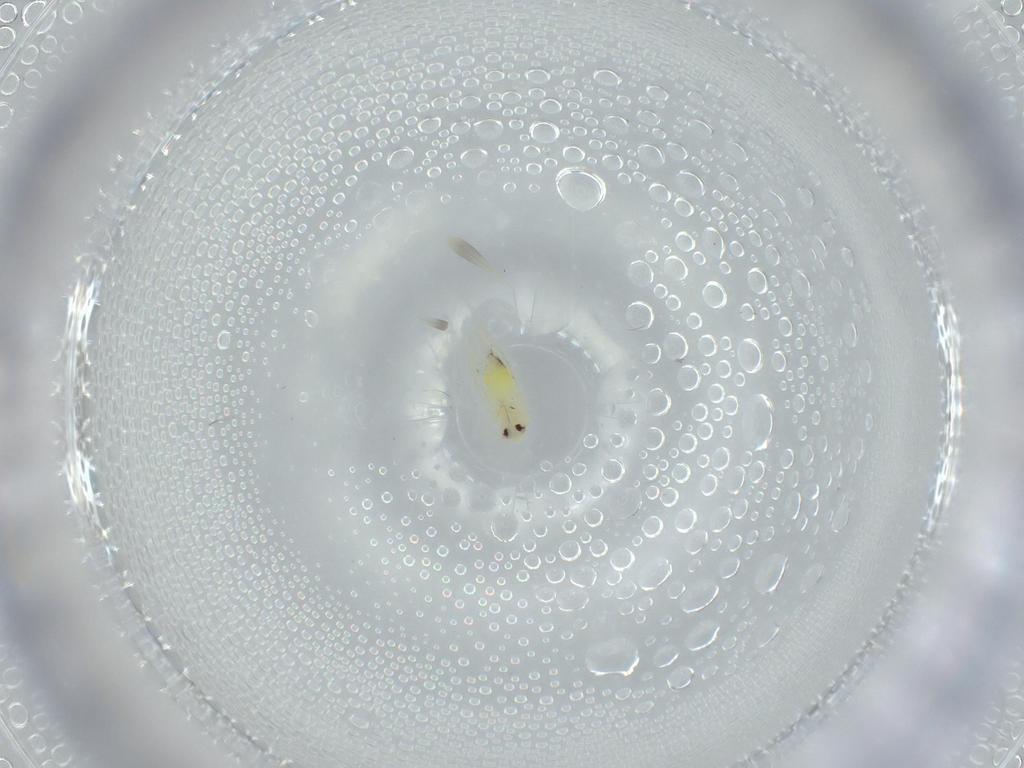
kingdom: Animalia
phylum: Arthropoda
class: Insecta
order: Hemiptera
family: Aleyrodidae
